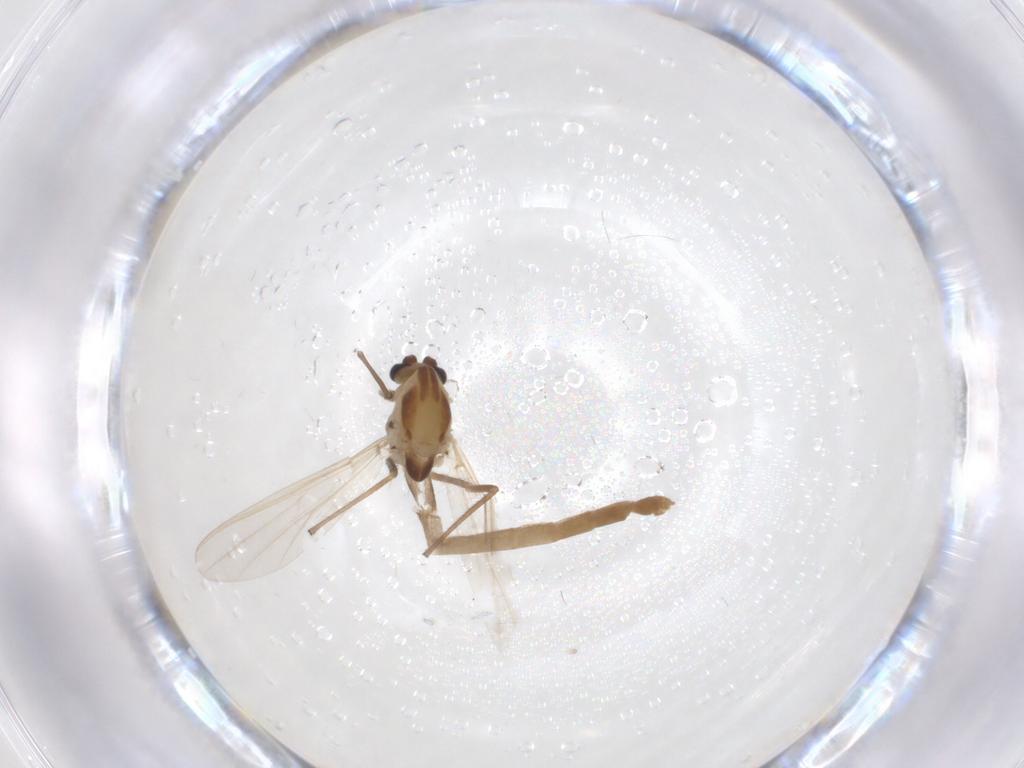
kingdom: Animalia
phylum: Arthropoda
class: Insecta
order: Diptera
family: Chironomidae
